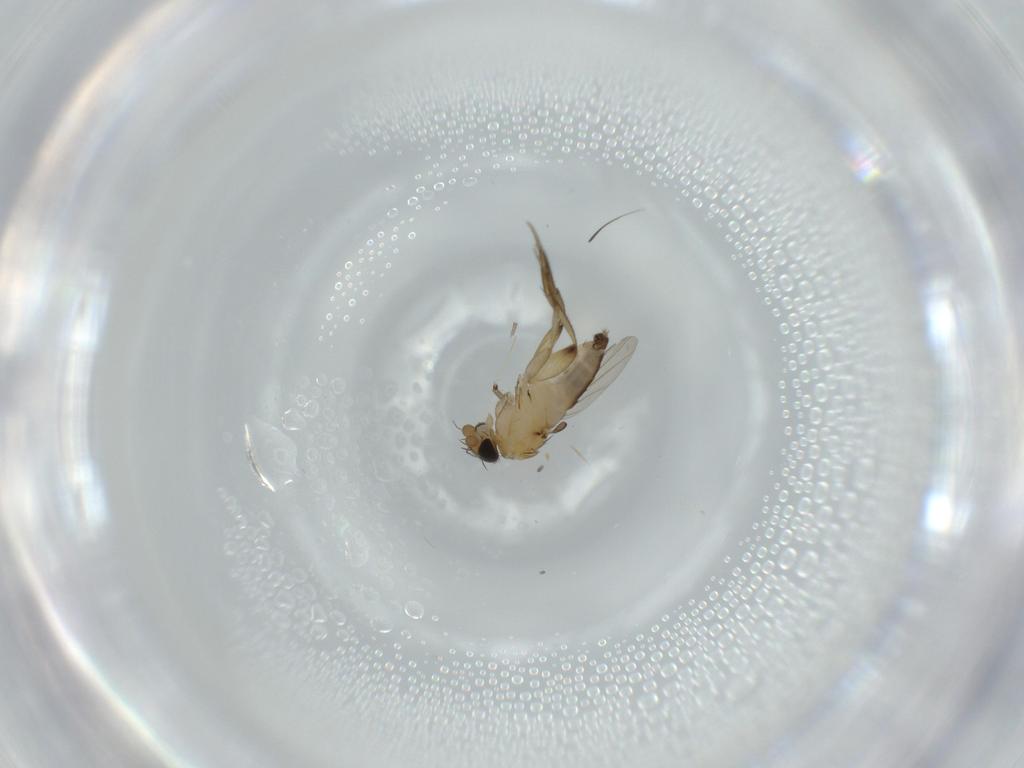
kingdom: Animalia
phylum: Arthropoda
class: Insecta
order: Diptera
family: Phoridae
